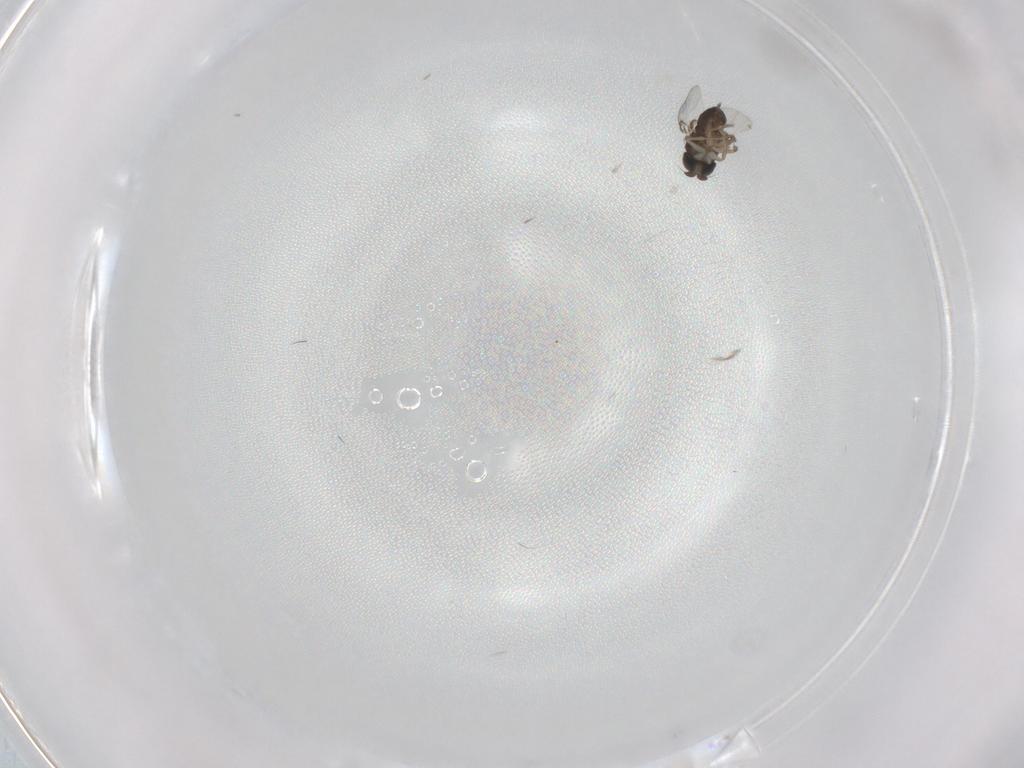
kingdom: Animalia
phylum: Arthropoda
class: Insecta
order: Diptera
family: Phoridae
